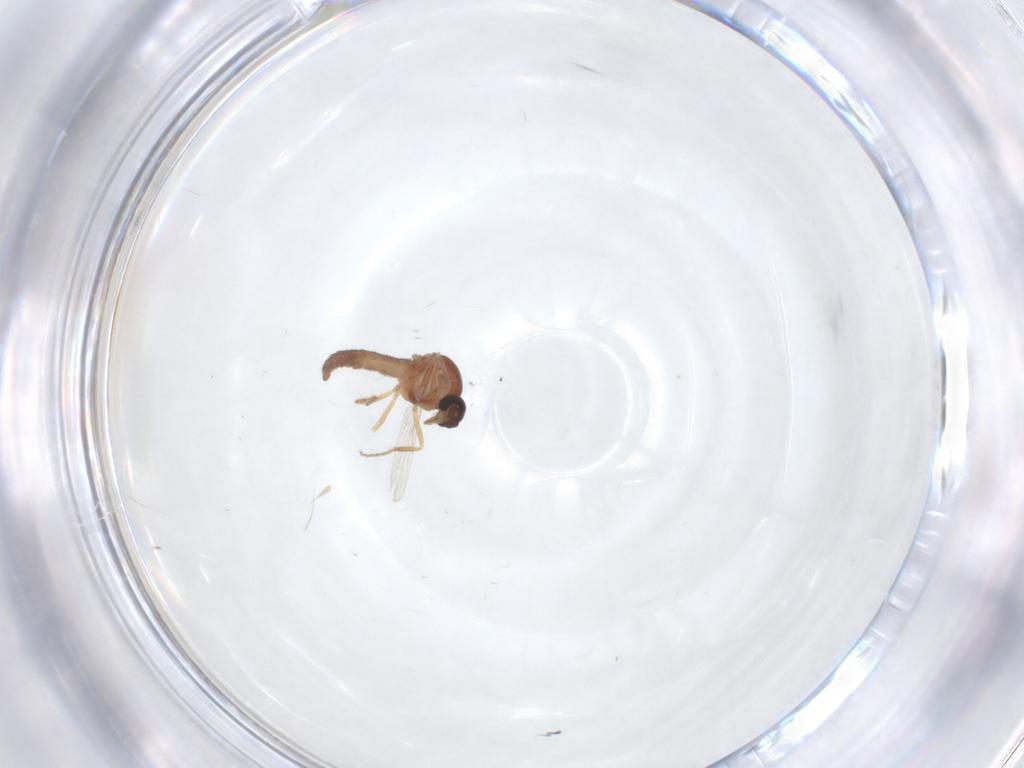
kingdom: Animalia
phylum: Arthropoda
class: Insecta
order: Diptera
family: Ceratopogonidae
